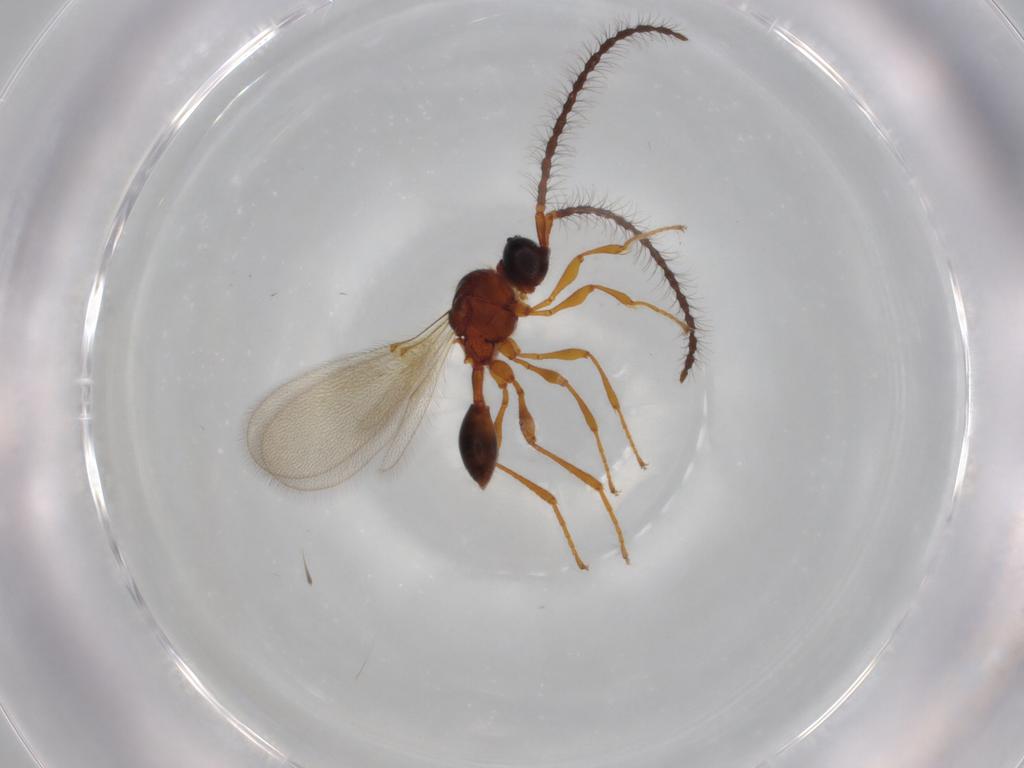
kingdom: Animalia
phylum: Arthropoda
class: Insecta
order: Hymenoptera
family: Diapriidae
